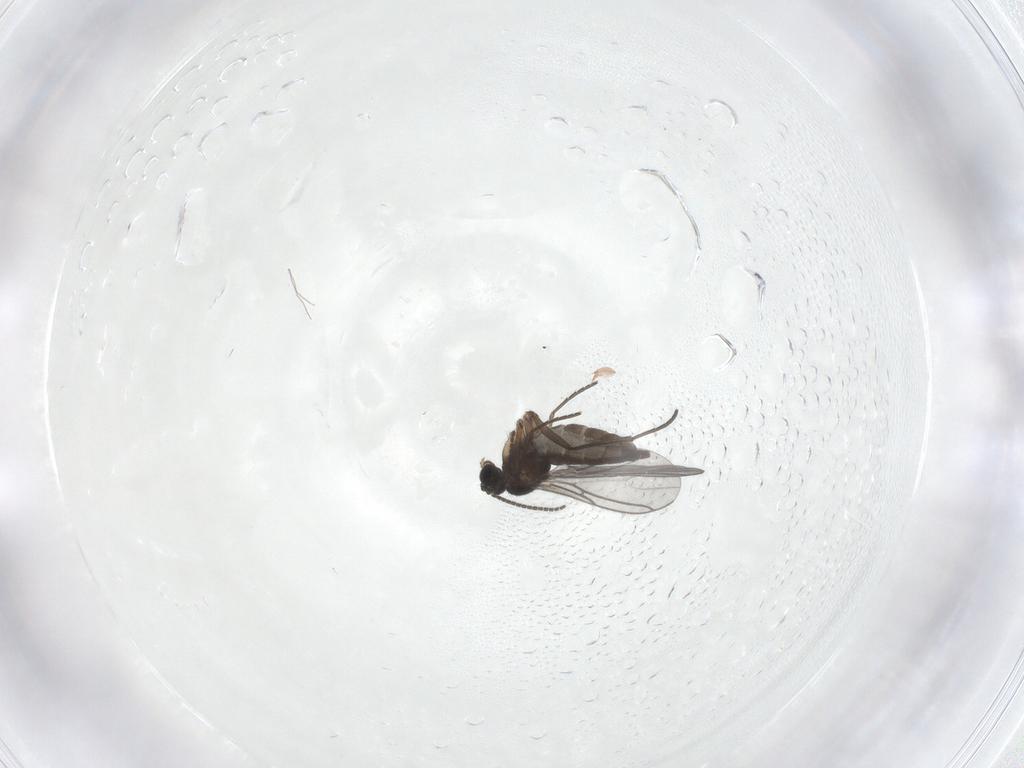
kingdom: Animalia
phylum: Arthropoda
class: Insecta
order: Diptera
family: Sciaridae
